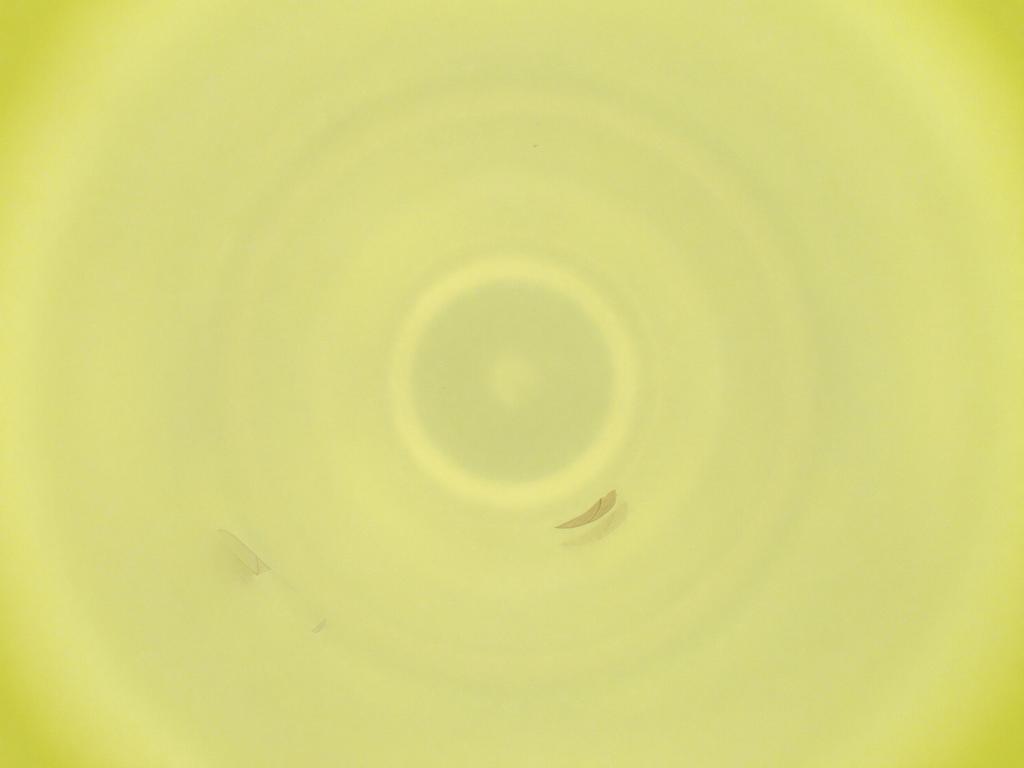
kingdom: Animalia
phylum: Arthropoda
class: Insecta
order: Diptera
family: Cecidomyiidae
